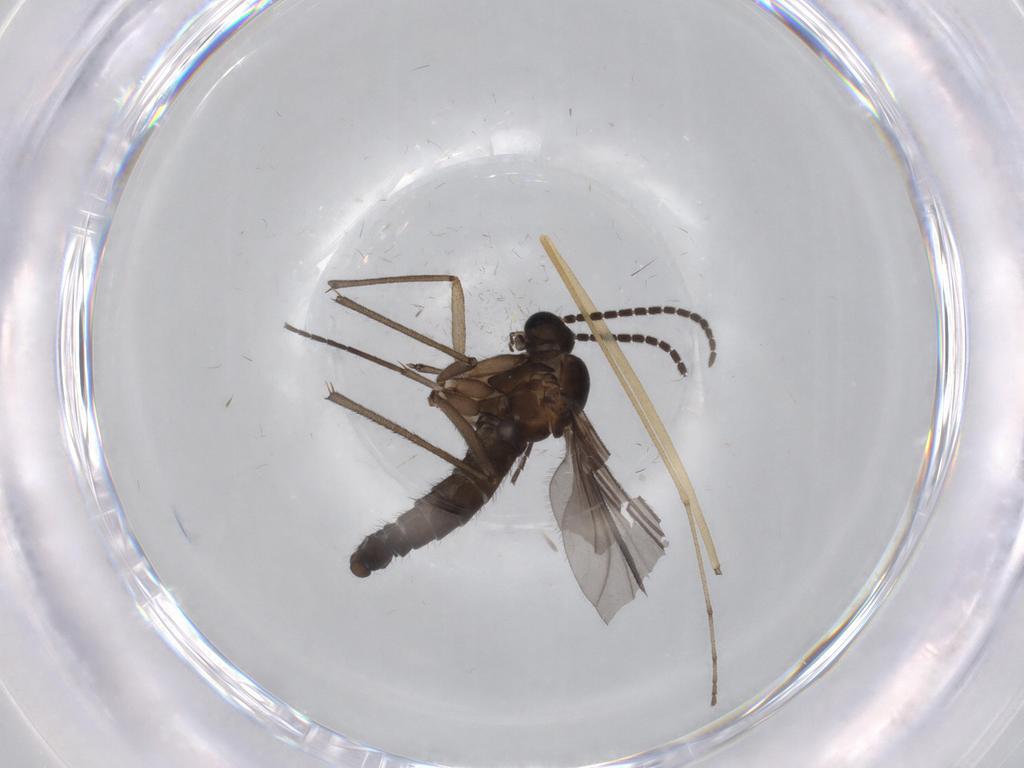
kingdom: Animalia
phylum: Arthropoda
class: Insecta
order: Diptera
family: Sciaridae
